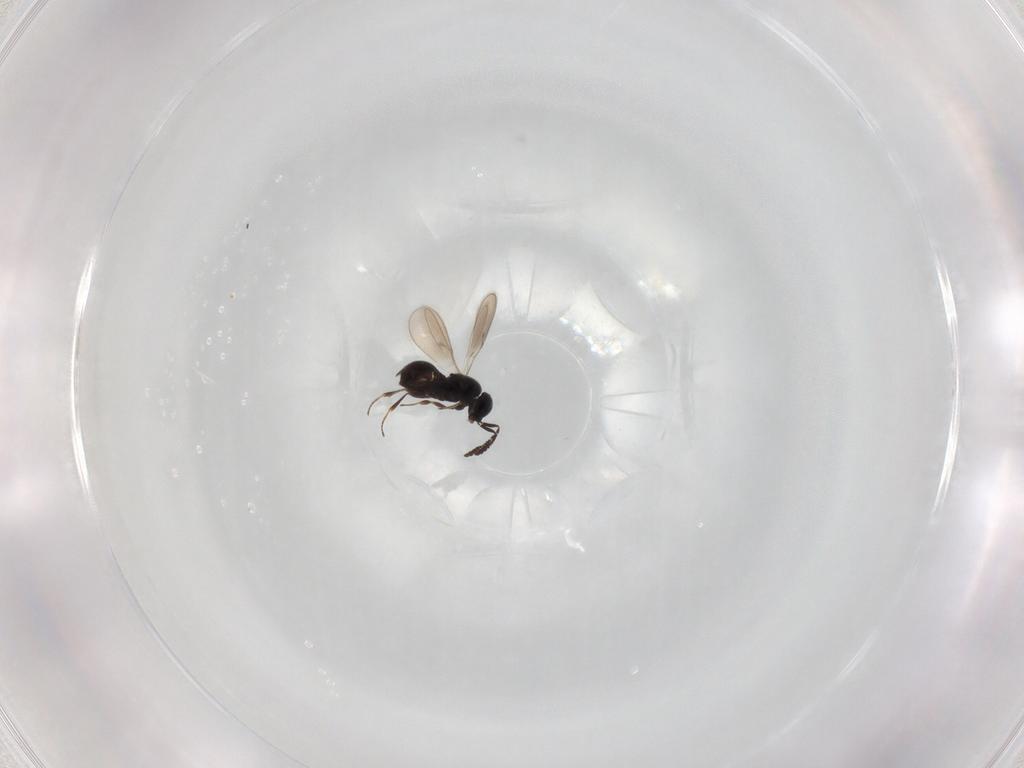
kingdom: Animalia
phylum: Arthropoda
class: Insecta
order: Hymenoptera
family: Scelionidae
